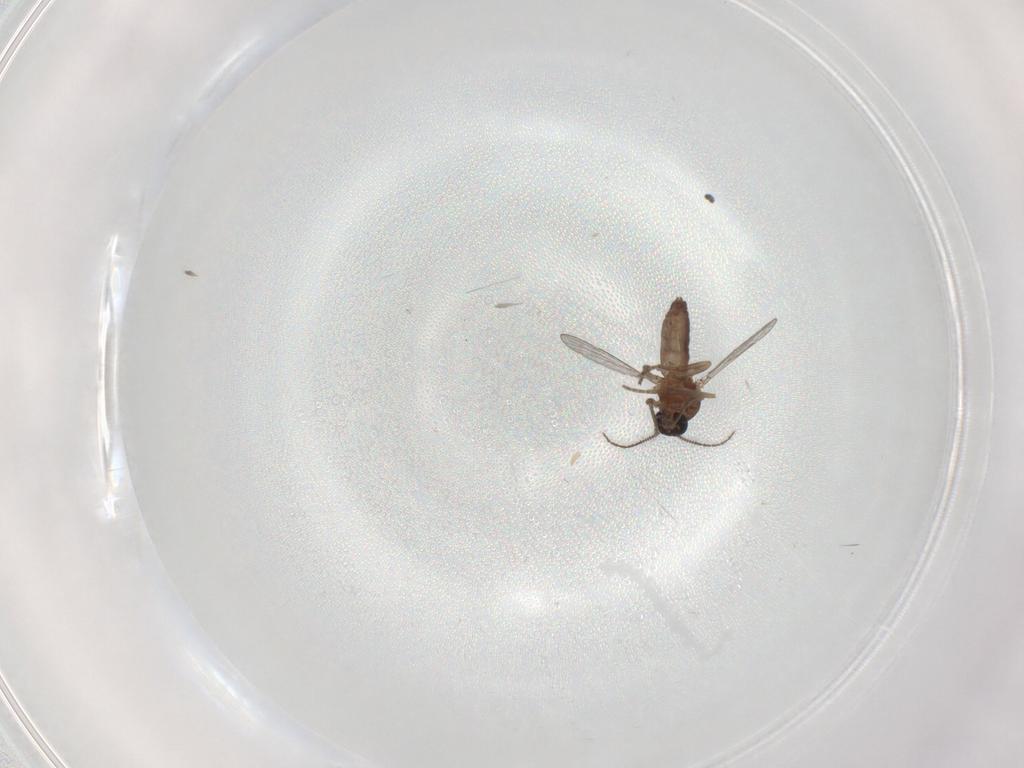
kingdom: Animalia
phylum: Arthropoda
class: Insecta
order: Diptera
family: Ceratopogonidae
